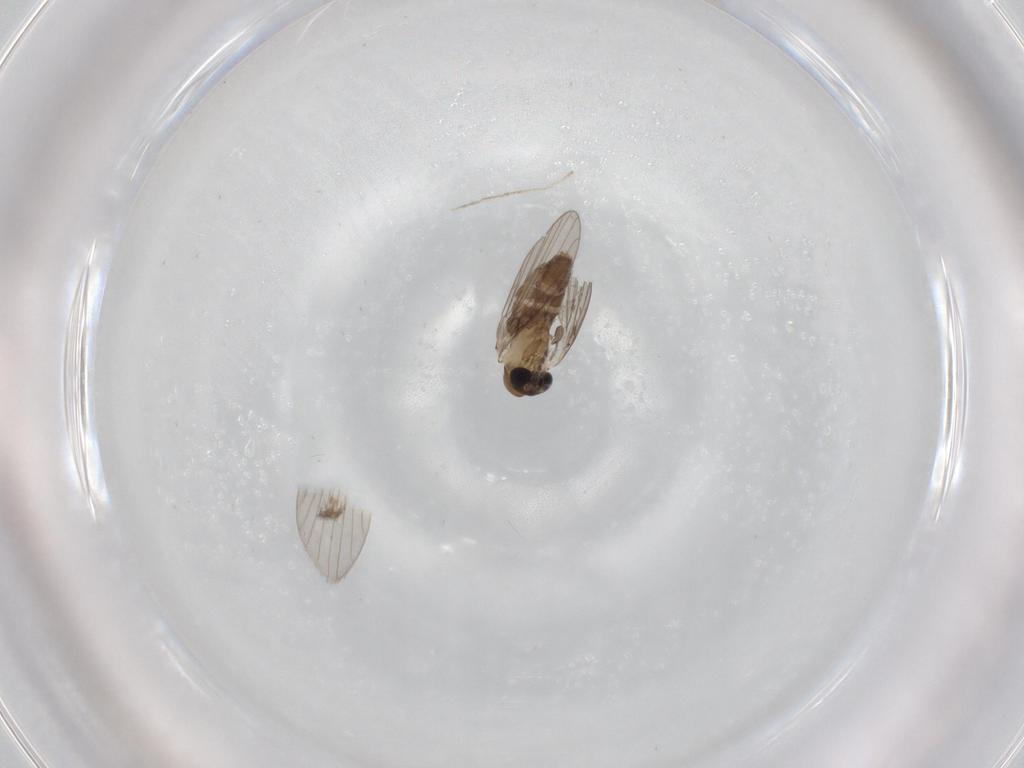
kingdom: Animalia
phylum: Arthropoda
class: Insecta
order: Diptera
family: Psychodidae
